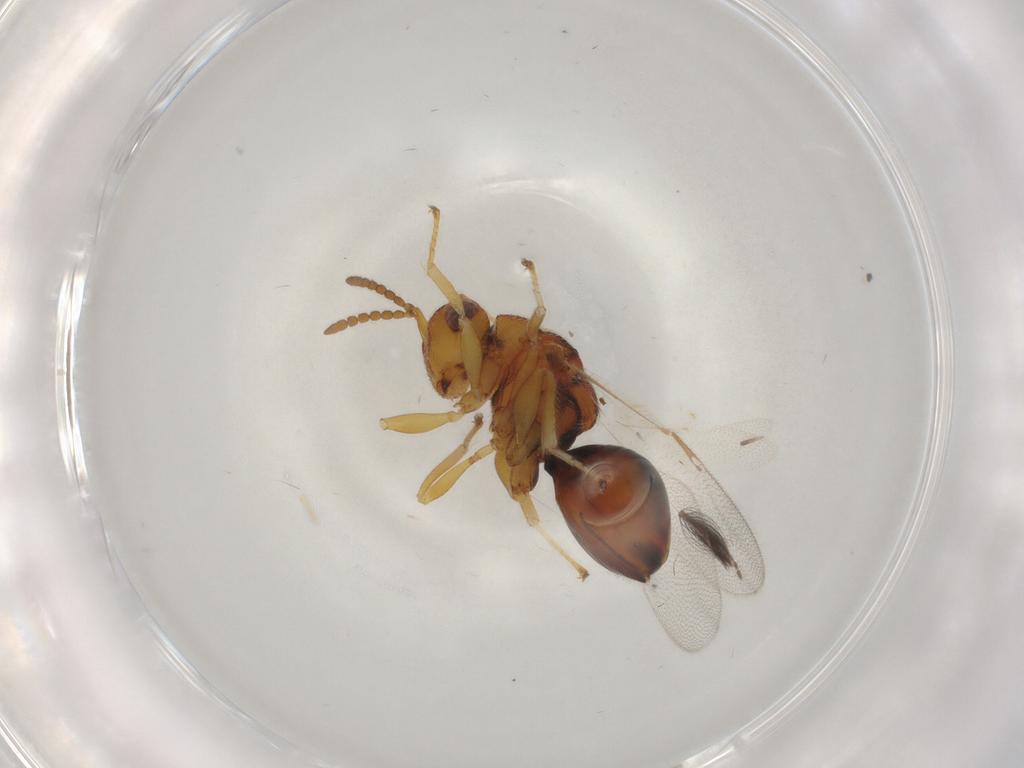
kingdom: Animalia
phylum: Arthropoda
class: Insecta
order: Hymenoptera
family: Eurytomidae
